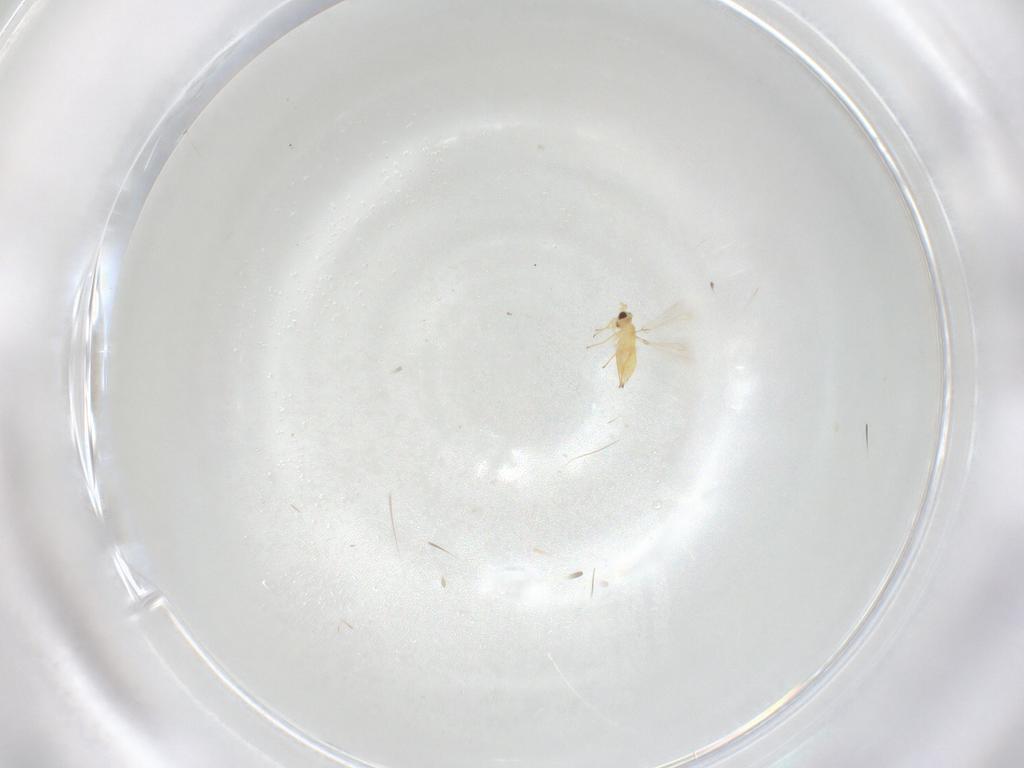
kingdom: Animalia
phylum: Arthropoda
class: Insecta
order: Hymenoptera
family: Mymaridae
